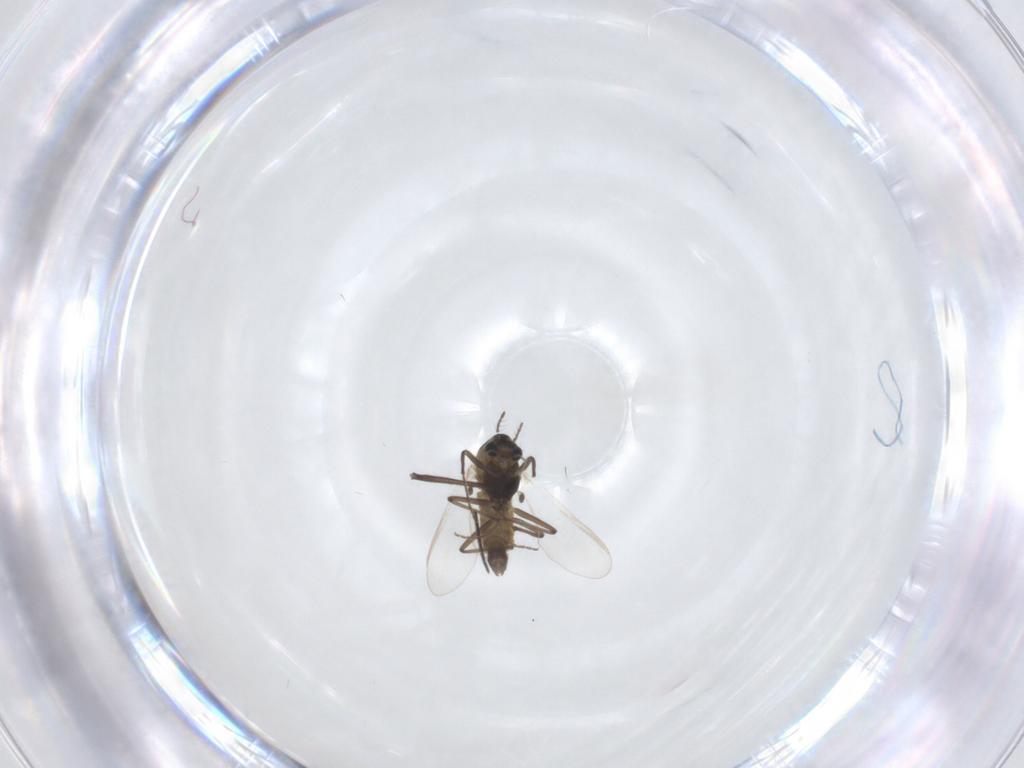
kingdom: Animalia
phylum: Arthropoda
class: Insecta
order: Diptera
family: Chironomidae
